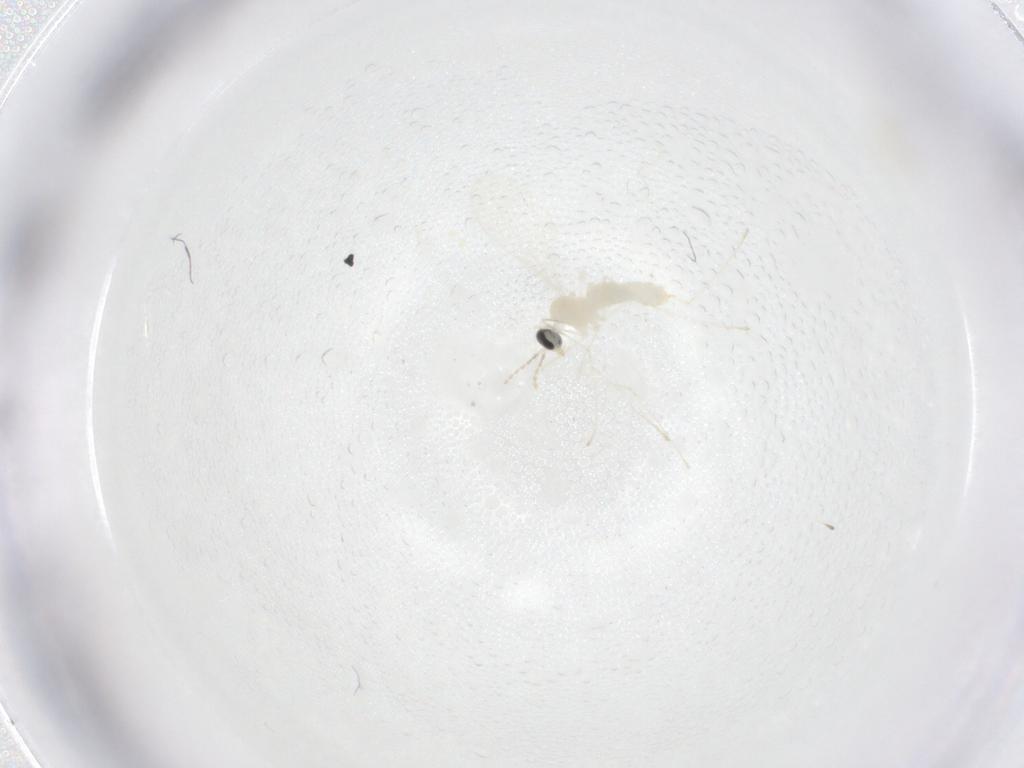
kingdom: Animalia
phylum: Arthropoda
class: Insecta
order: Diptera
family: Cecidomyiidae
